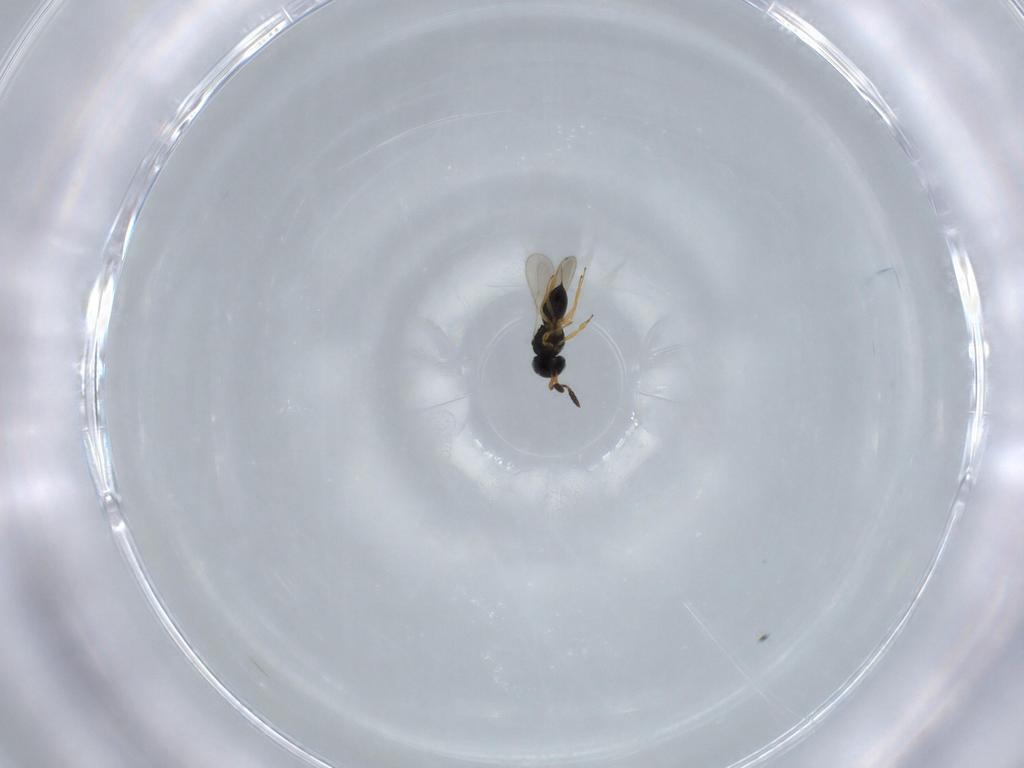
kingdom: Animalia
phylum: Arthropoda
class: Insecta
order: Hymenoptera
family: Scelionidae
